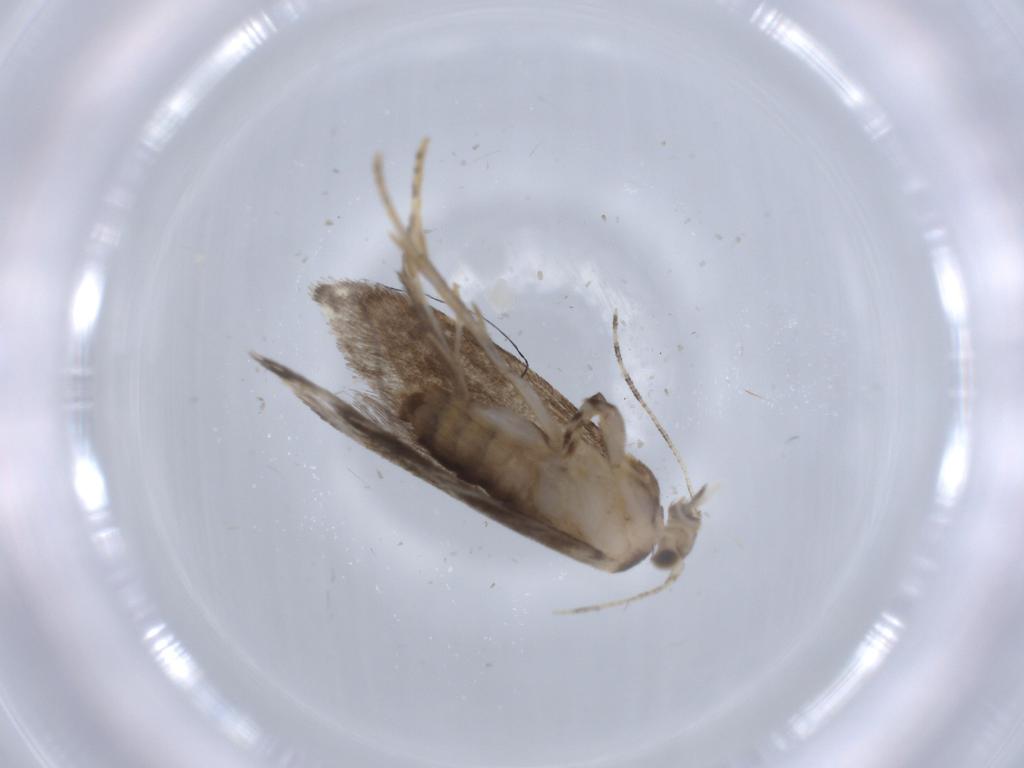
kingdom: Animalia
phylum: Arthropoda
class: Insecta
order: Lepidoptera
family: Tineidae
